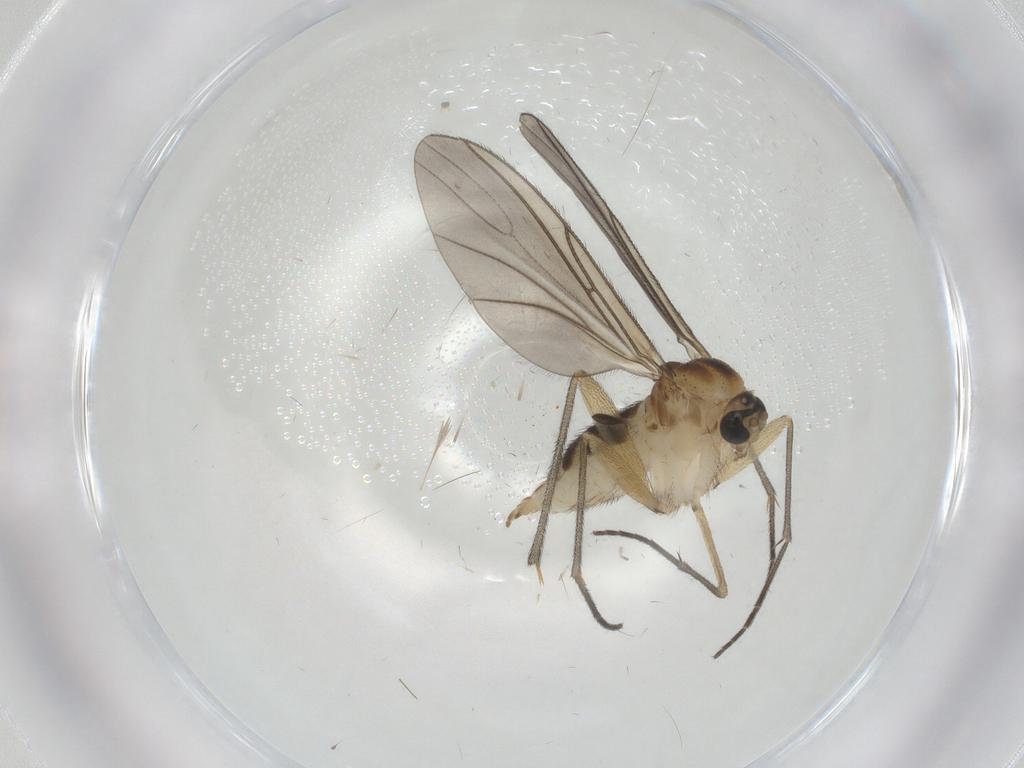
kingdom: Animalia
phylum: Arthropoda
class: Insecta
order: Diptera
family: Sciaridae
